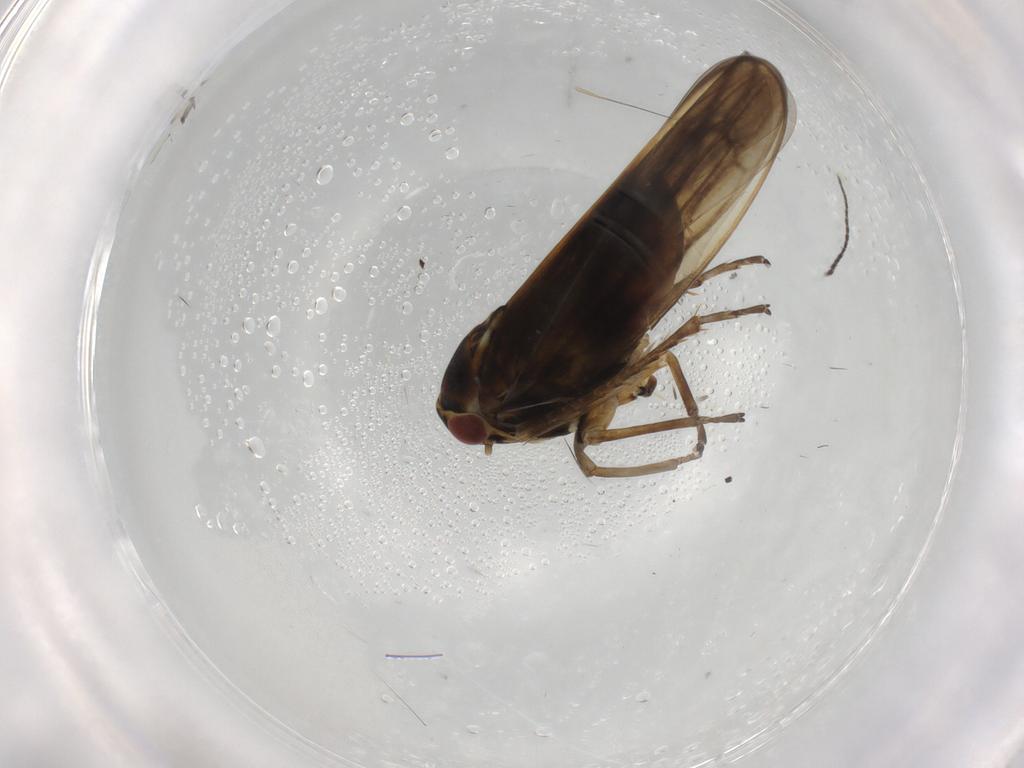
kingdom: Animalia
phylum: Arthropoda
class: Insecta
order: Hemiptera
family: Cicadellidae
